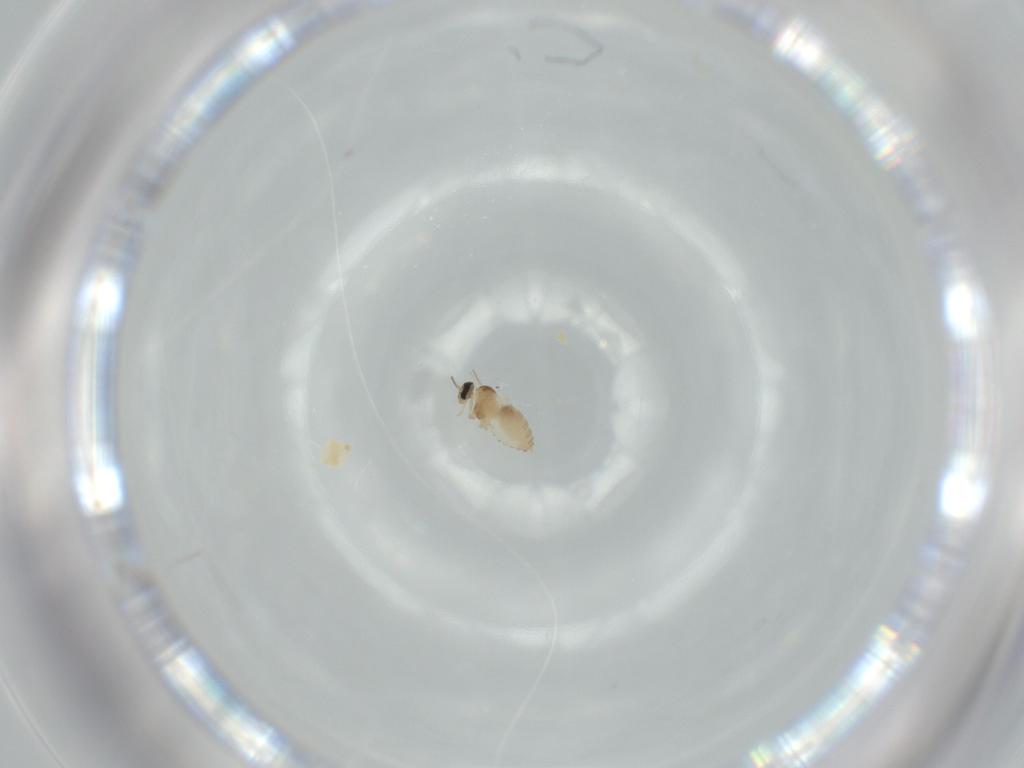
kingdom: Animalia
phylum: Arthropoda
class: Insecta
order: Diptera
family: Cecidomyiidae
